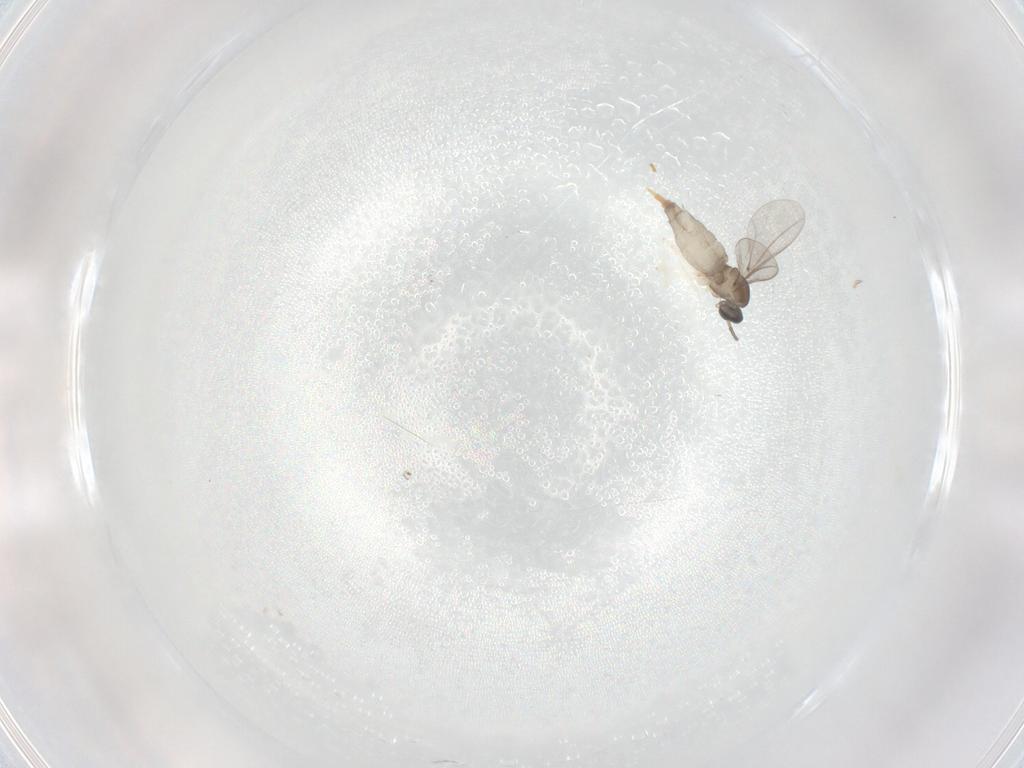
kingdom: Animalia
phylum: Arthropoda
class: Insecta
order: Diptera
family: Cecidomyiidae
